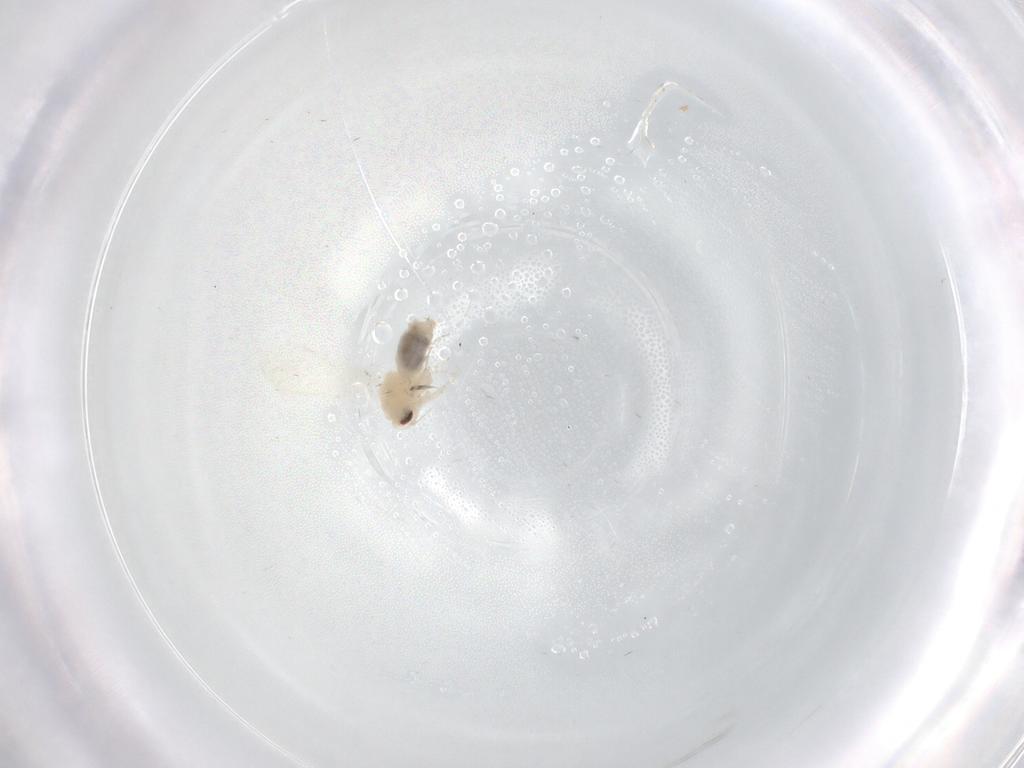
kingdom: Animalia
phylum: Arthropoda
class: Insecta
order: Hemiptera
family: Aleyrodidae
